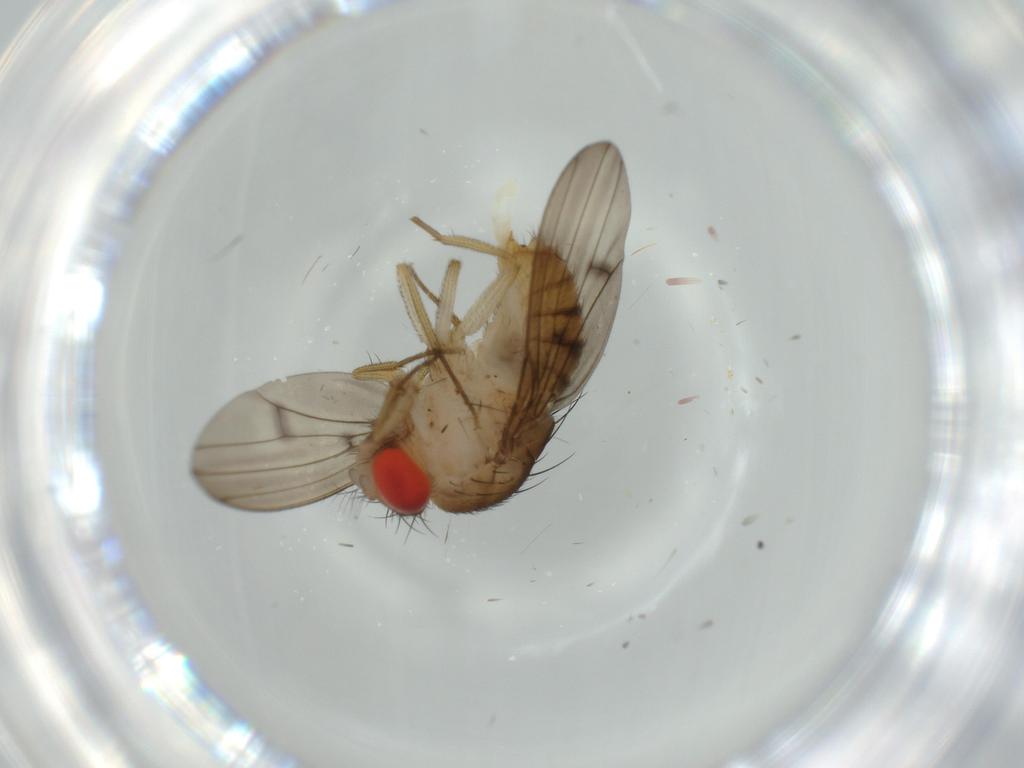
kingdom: Animalia
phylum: Arthropoda
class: Insecta
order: Diptera
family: Drosophilidae
